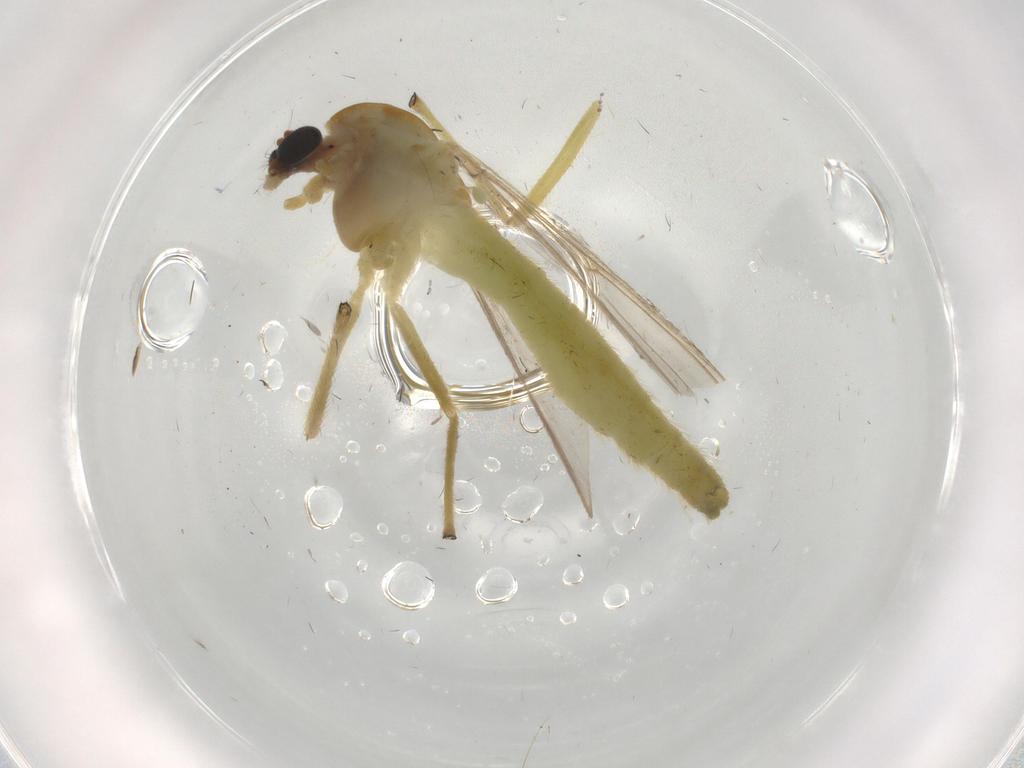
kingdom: Animalia
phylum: Arthropoda
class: Insecta
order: Diptera
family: Chironomidae
